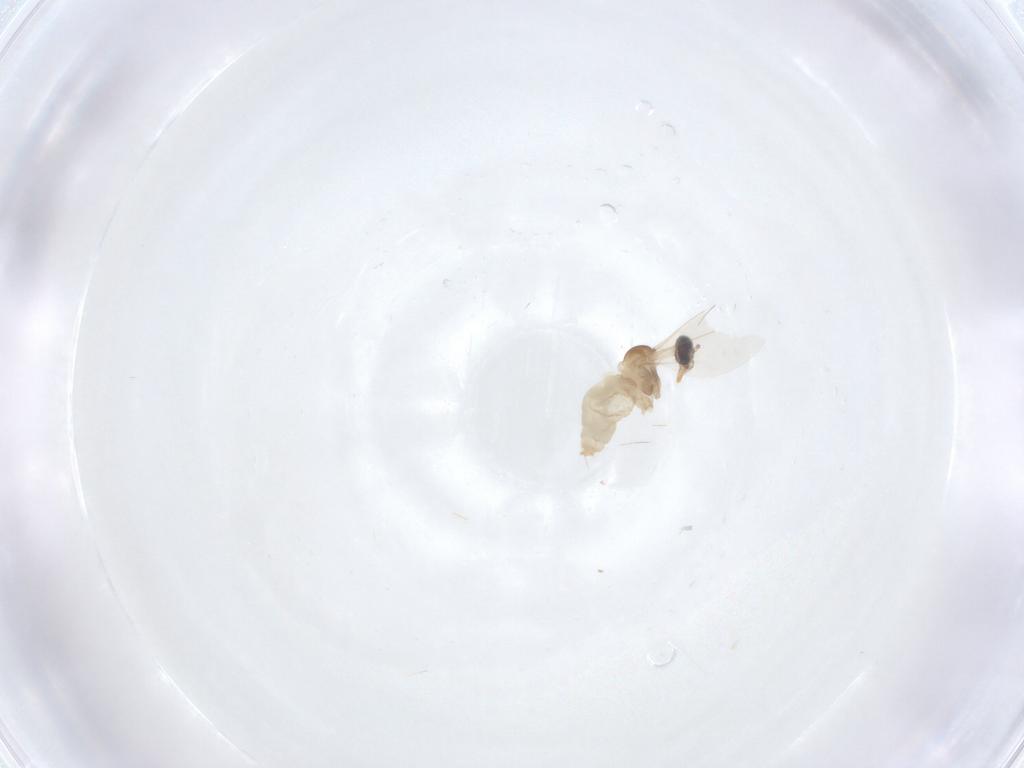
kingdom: Animalia
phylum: Arthropoda
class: Insecta
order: Diptera
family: Cecidomyiidae
